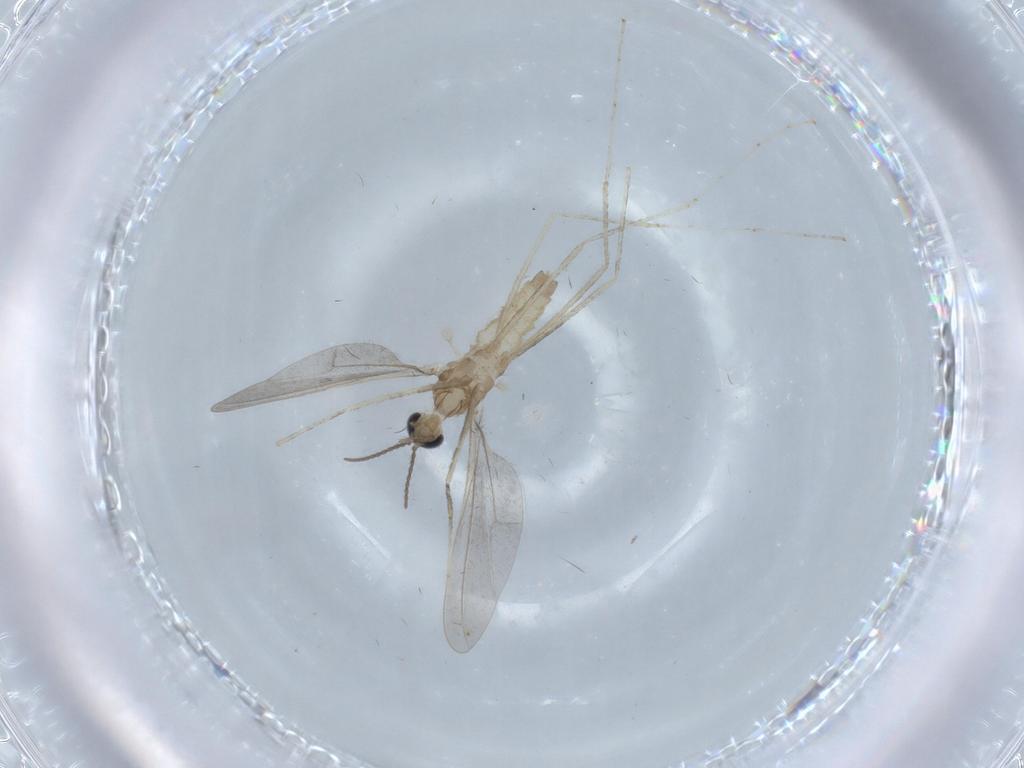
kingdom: Animalia
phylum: Arthropoda
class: Insecta
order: Diptera
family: Cecidomyiidae
